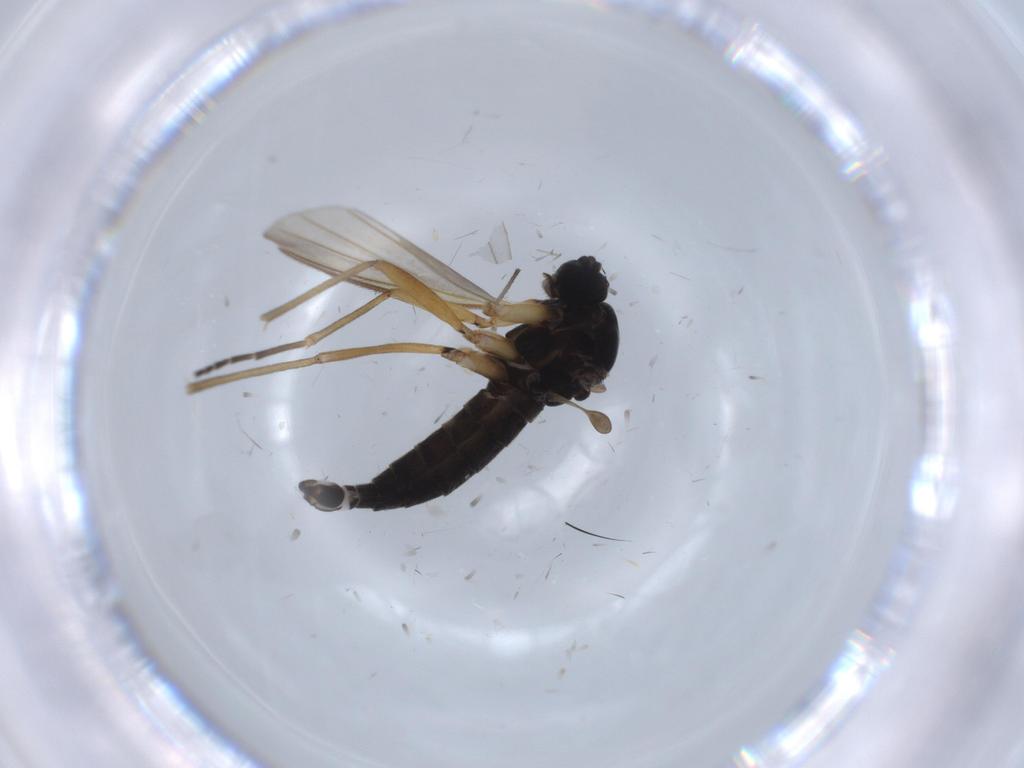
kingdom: Animalia
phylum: Arthropoda
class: Insecta
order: Diptera
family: Sciaridae
